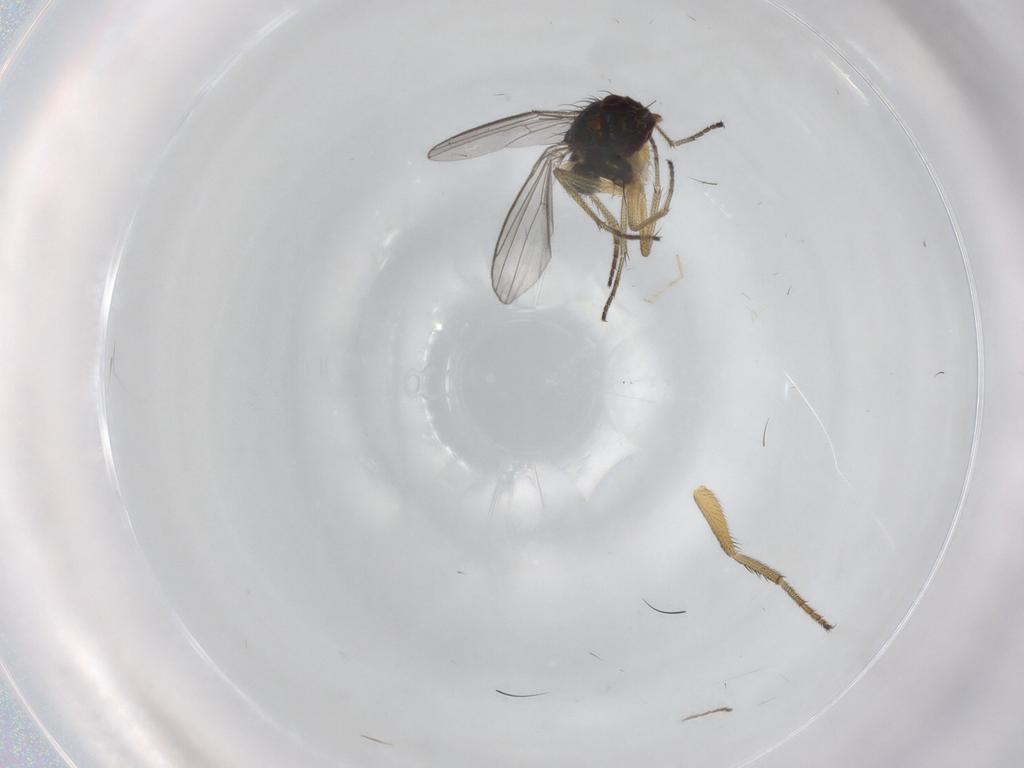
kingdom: Animalia
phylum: Arthropoda
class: Insecta
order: Diptera
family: Dolichopodidae
